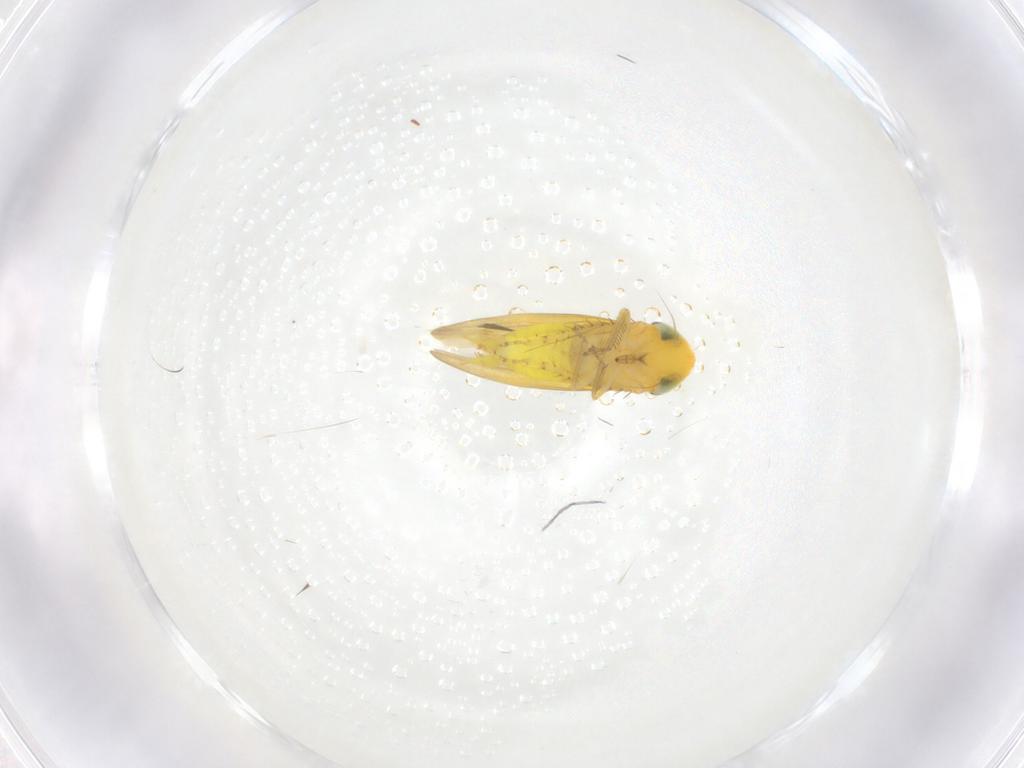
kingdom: Animalia
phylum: Arthropoda
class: Insecta
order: Hemiptera
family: Cicadellidae
